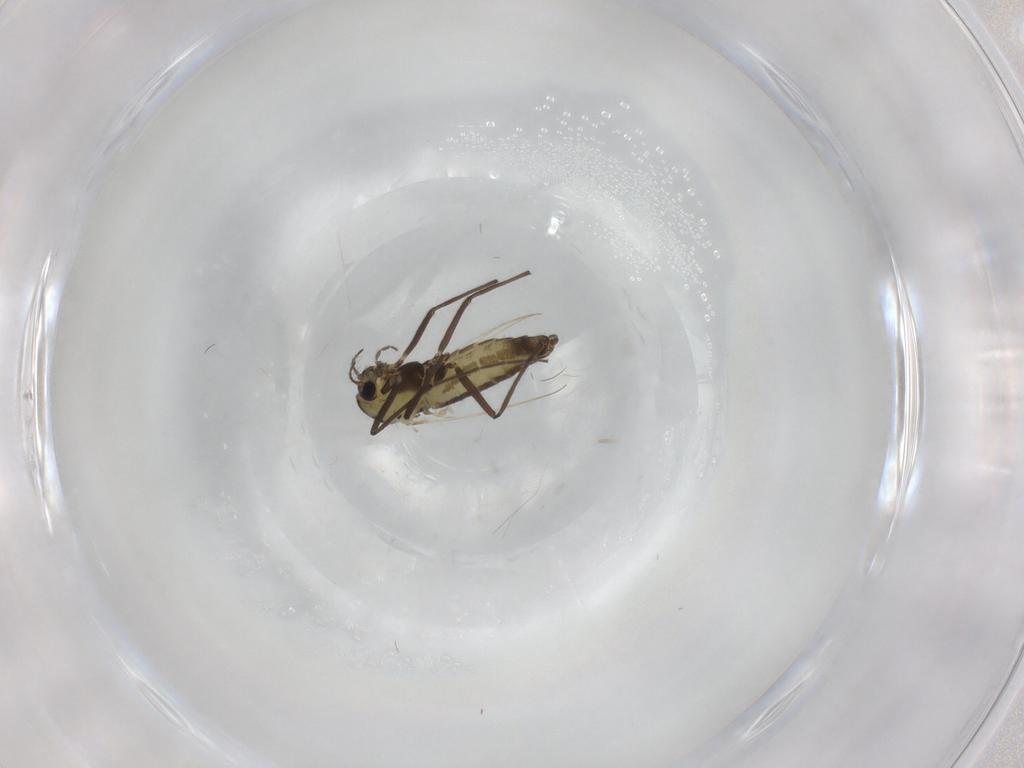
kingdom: Animalia
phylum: Arthropoda
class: Insecta
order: Diptera
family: Chironomidae
